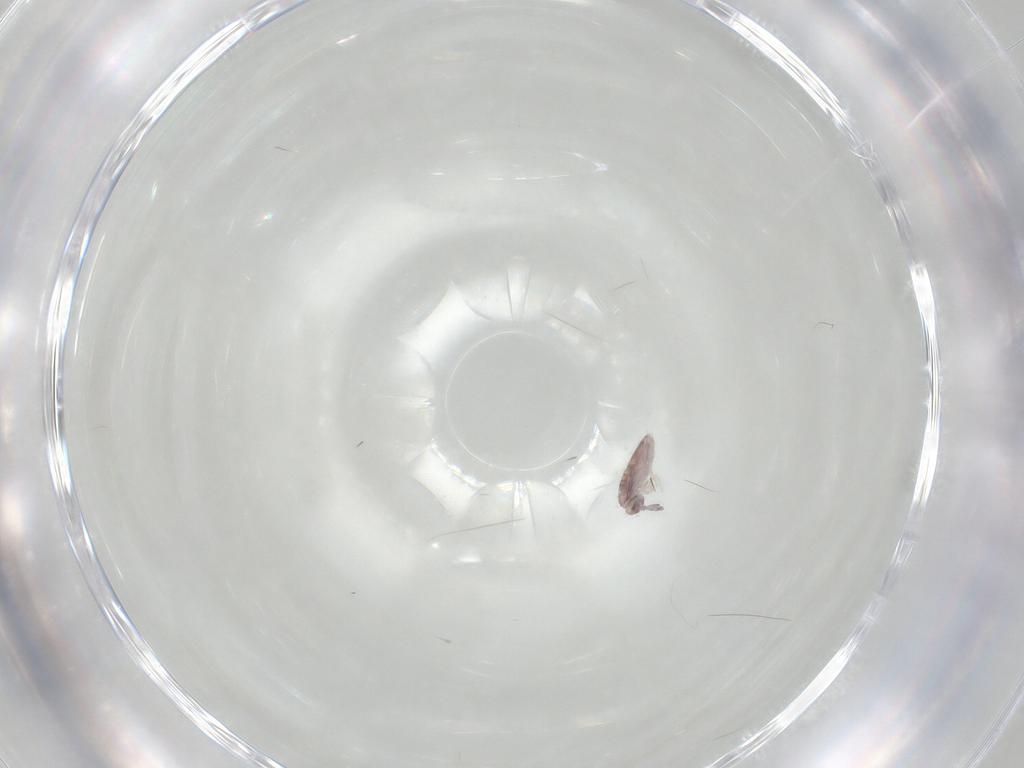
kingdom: Animalia
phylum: Arthropoda
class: Collembola
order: Entomobryomorpha
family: Entomobryidae
